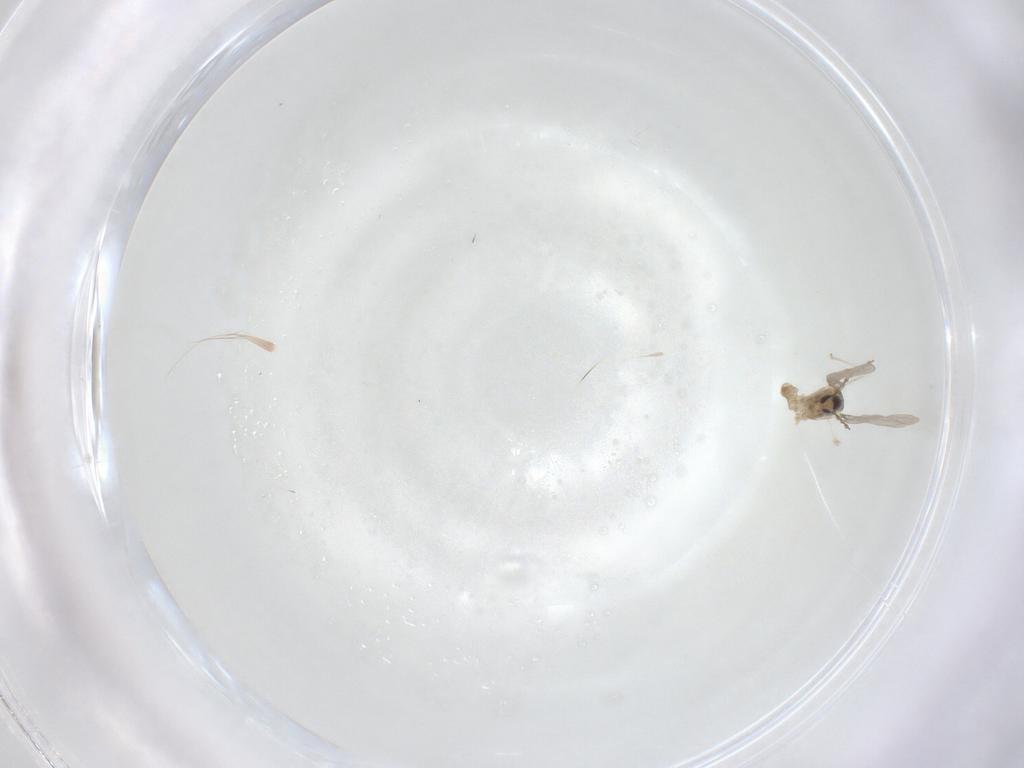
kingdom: Animalia
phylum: Arthropoda
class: Insecta
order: Diptera
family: Cecidomyiidae
